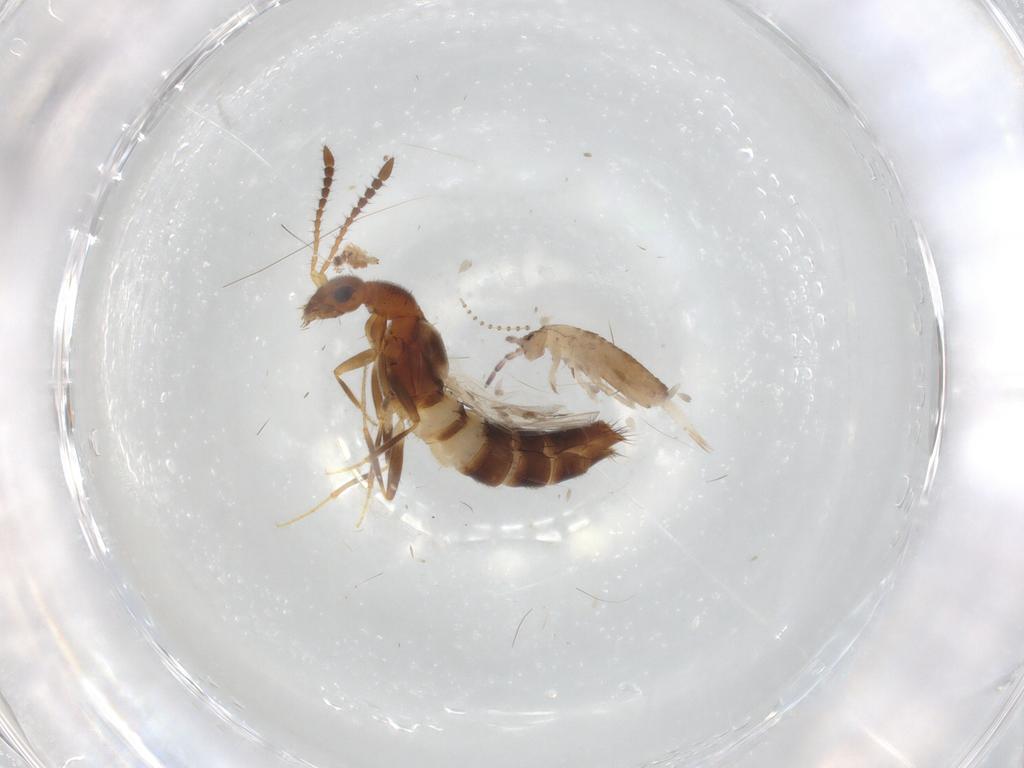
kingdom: Animalia
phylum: Arthropoda
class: Insecta
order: Coleoptera
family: Staphylinidae
